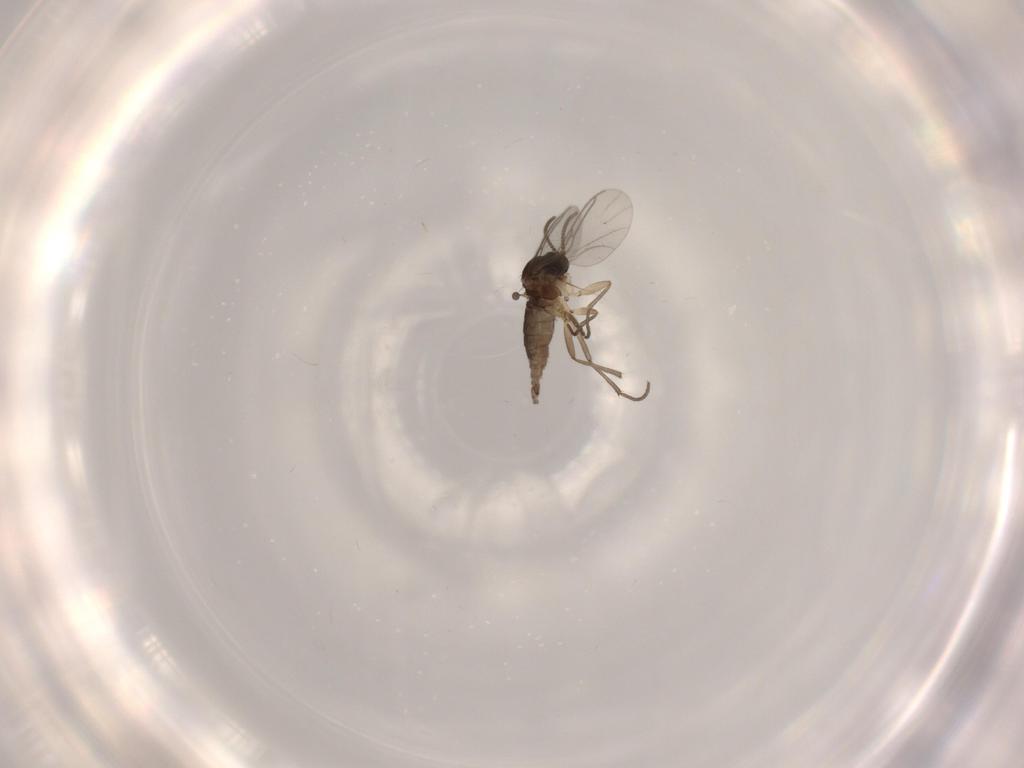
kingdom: Animalia
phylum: Arthropoda
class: Insecta
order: Diptera
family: Sciaridae
